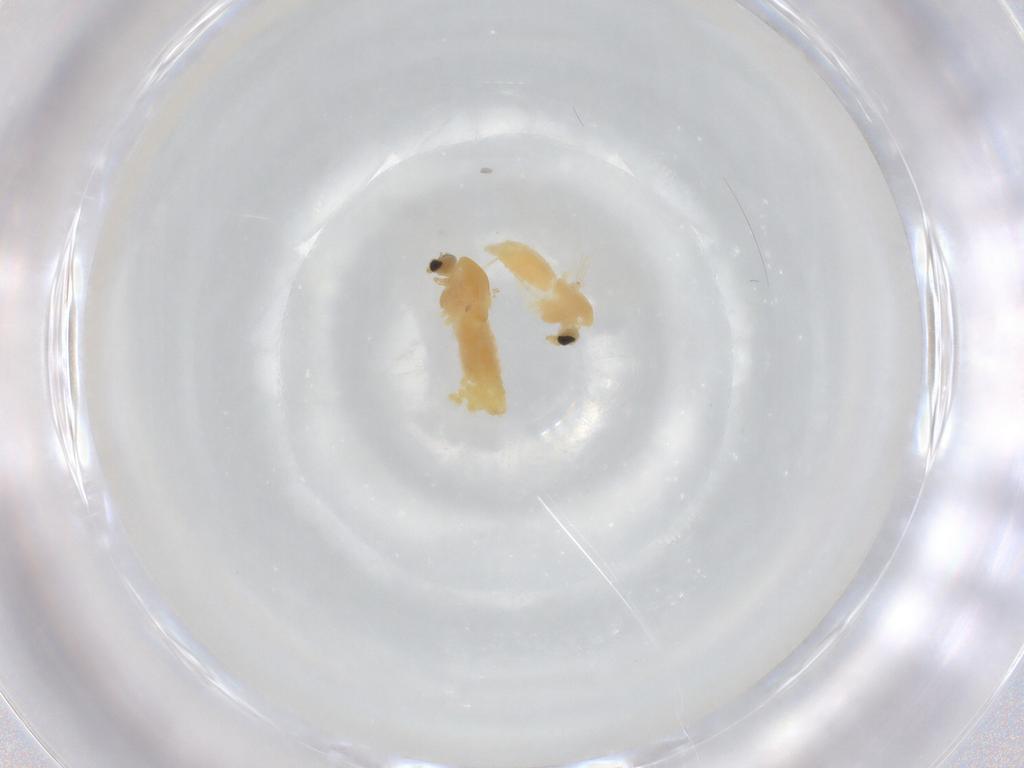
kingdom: Animalia
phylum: Arthropoda
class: Insecta
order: Diptera
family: Chironomidae
